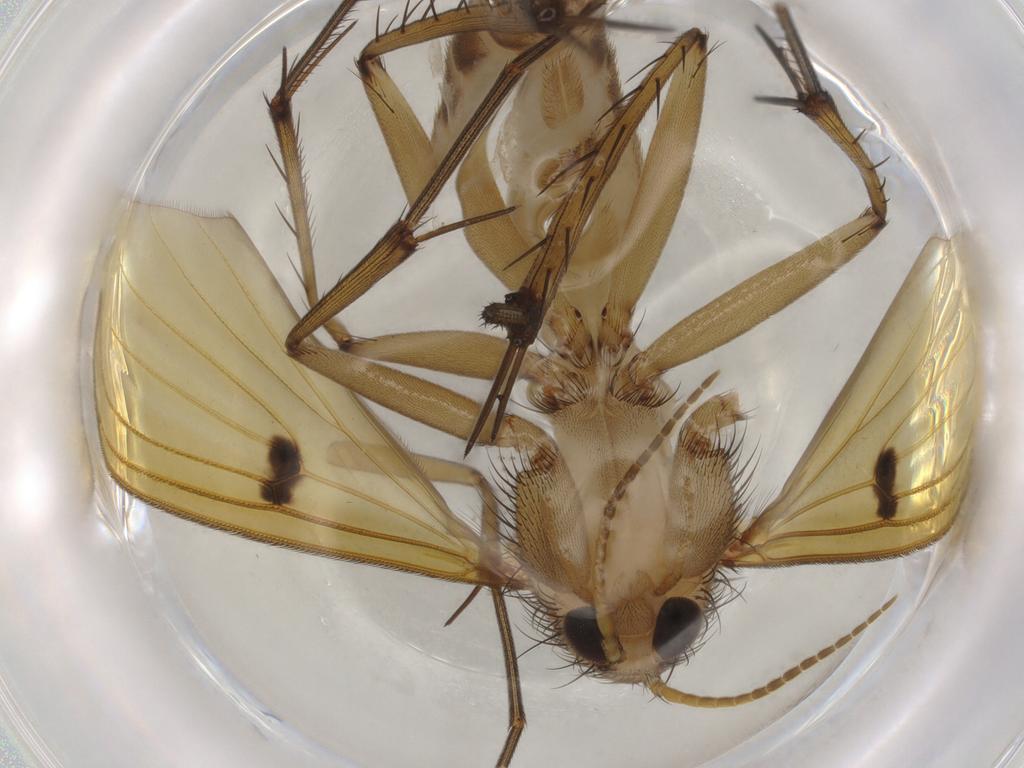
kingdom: Animalia
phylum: Arthropoda
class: Insecta
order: Diptera
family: Mycetophilidae
